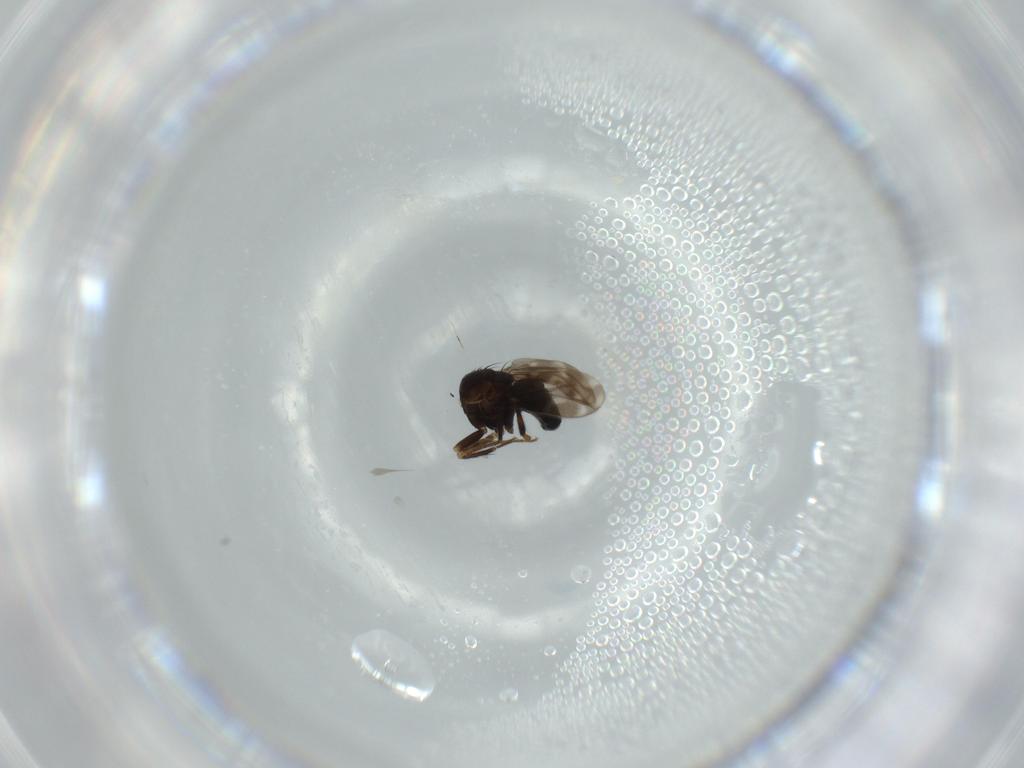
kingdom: Animalia
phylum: Arthropoda
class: Insecta
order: Diptera
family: Sphaeroceridae
